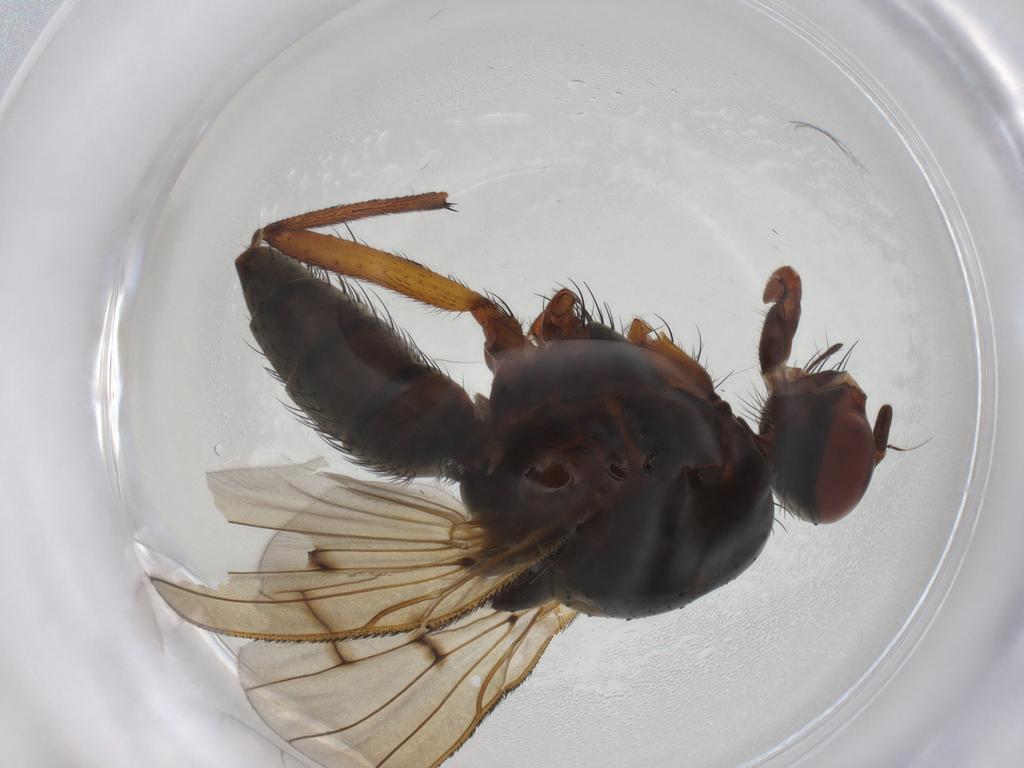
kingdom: Animalia
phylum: Arthropoda
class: Insecta
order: Diptera
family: Anthomyiidae
